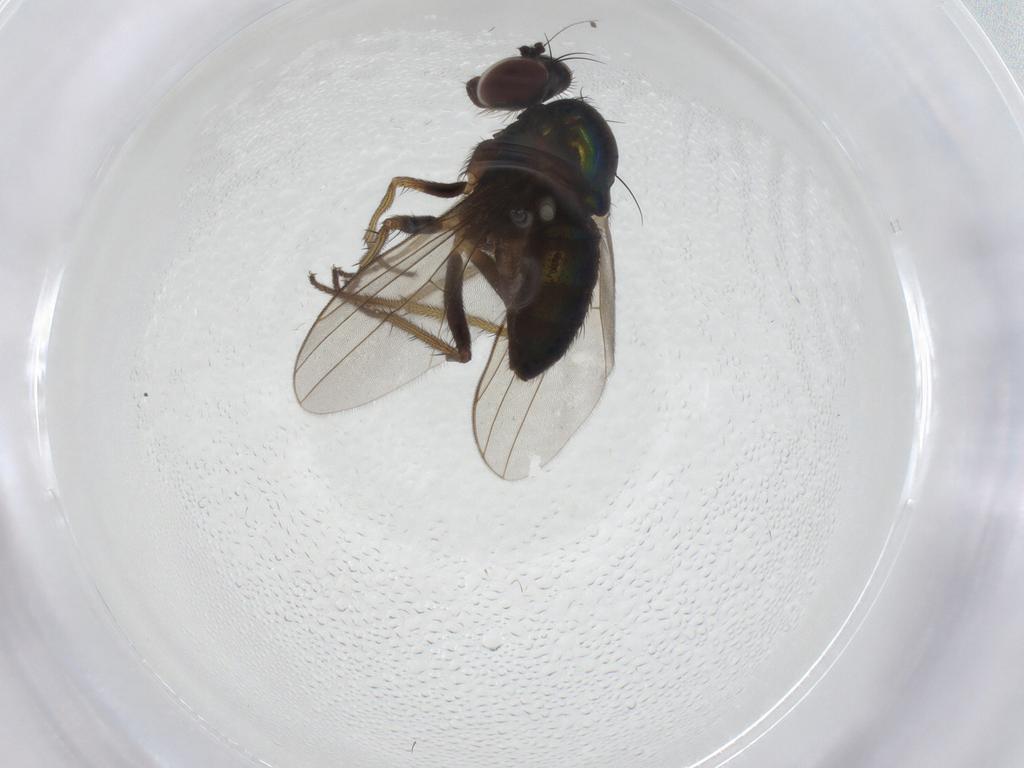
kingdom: Animalia
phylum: Arthropoda
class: Insecta
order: Diptera
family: Cecidomyiidae
